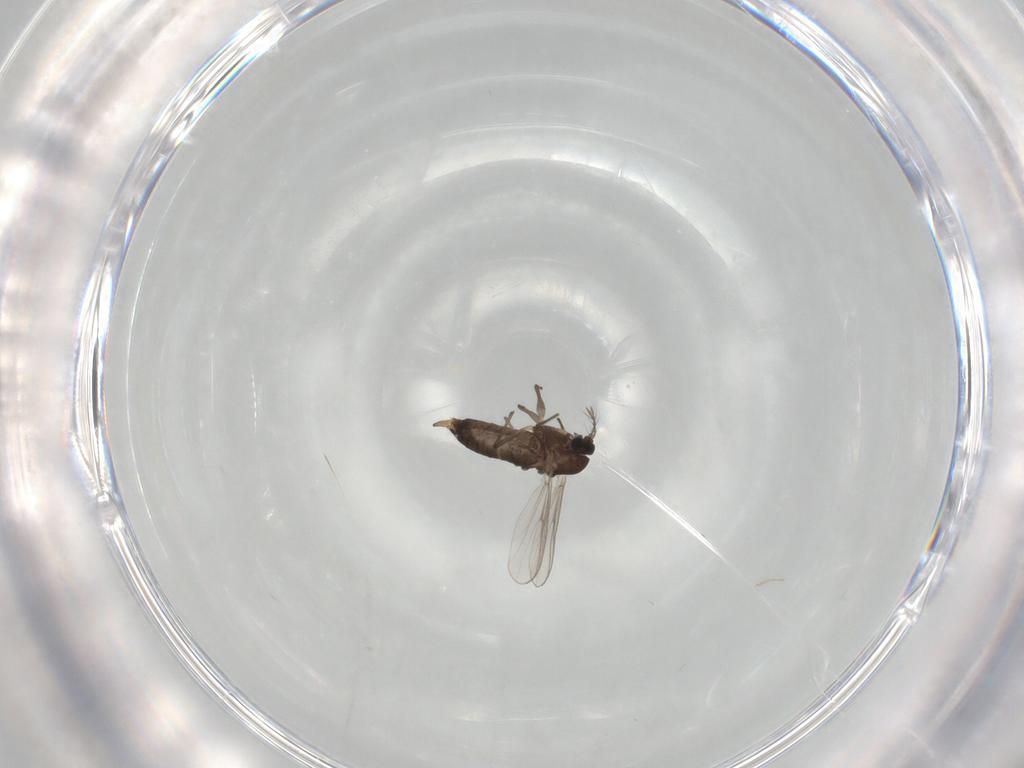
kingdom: Animalia
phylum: Arthropoda
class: Insecta
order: Diptera
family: Chironomidae
